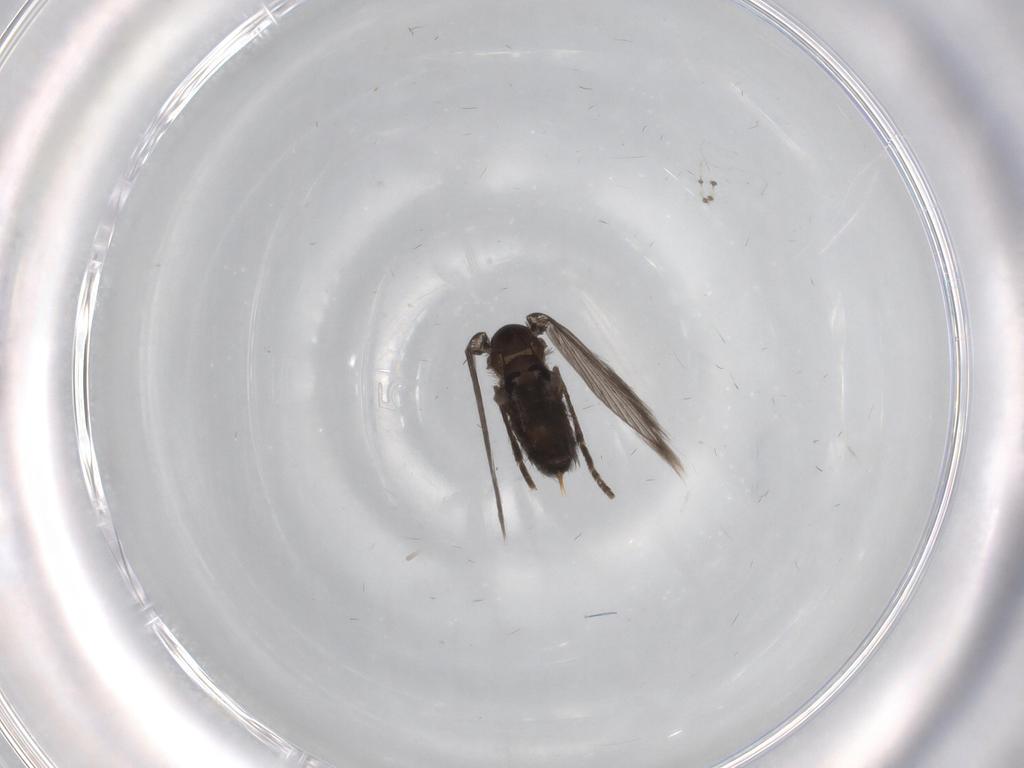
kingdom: Animalia
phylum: Arthropoda
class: Insecta
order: Diptera
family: Psychodidae
